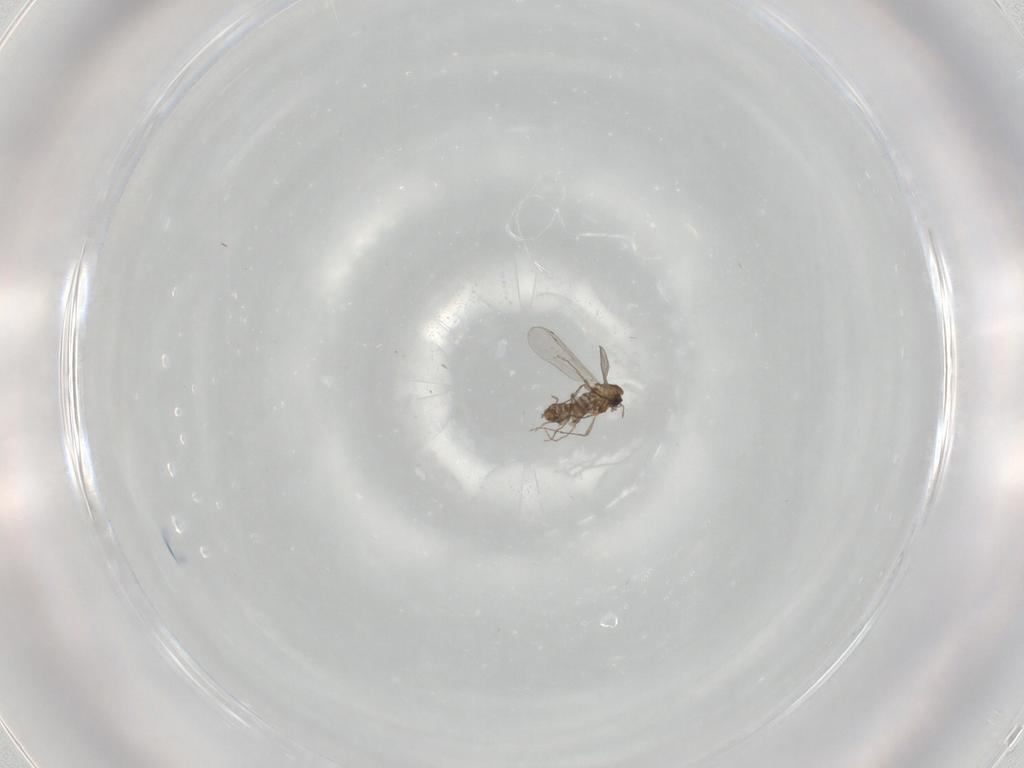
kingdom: Animalia
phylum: Arthropoda
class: Insecta
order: Diptera
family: Chironomidae
